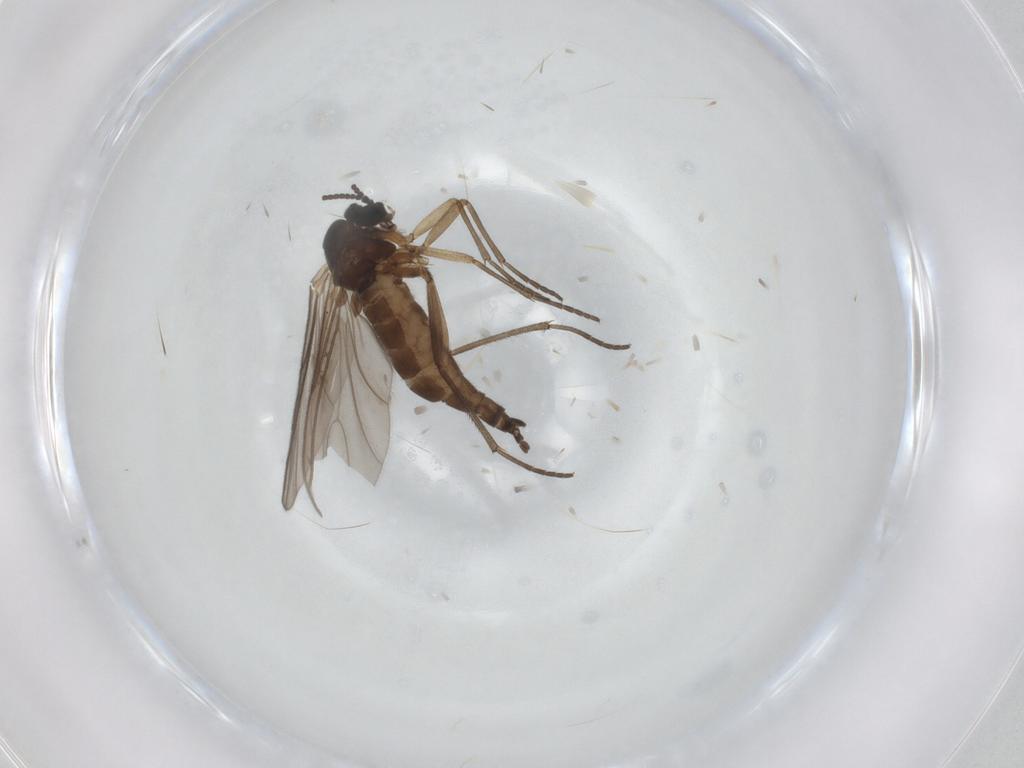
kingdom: Animalia
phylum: Arthropoda
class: Insecta
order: Diptera
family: Sciaridae
